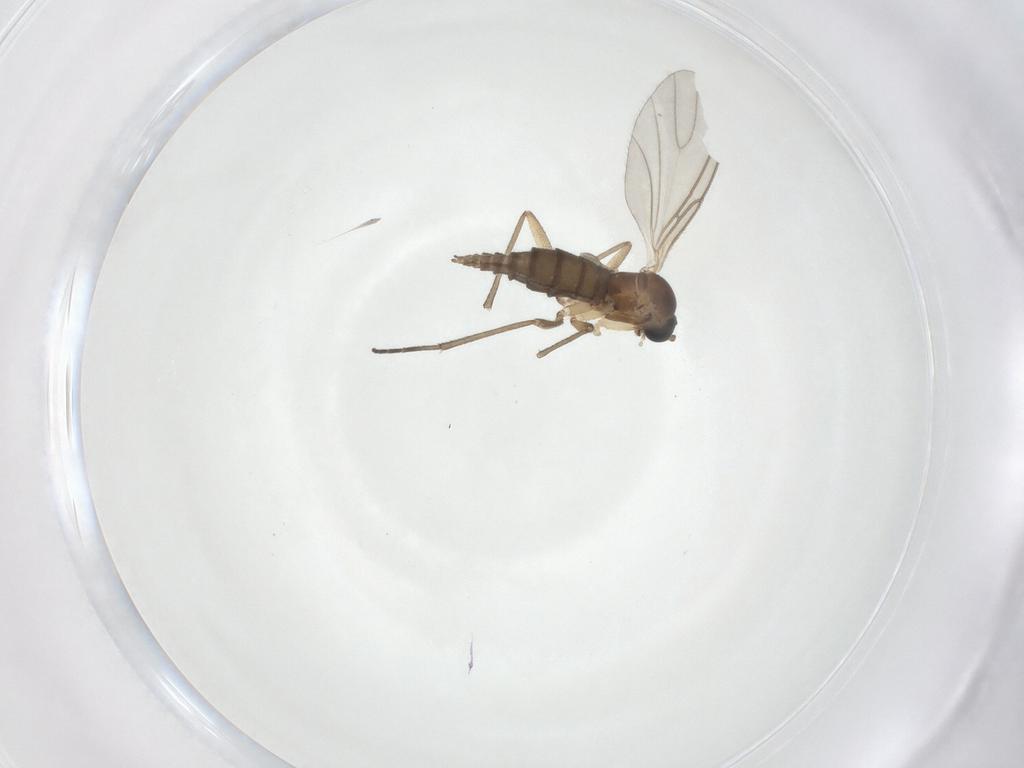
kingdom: Animalia
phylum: Arthropoda
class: Insecta
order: Diptera
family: Sciaridae
